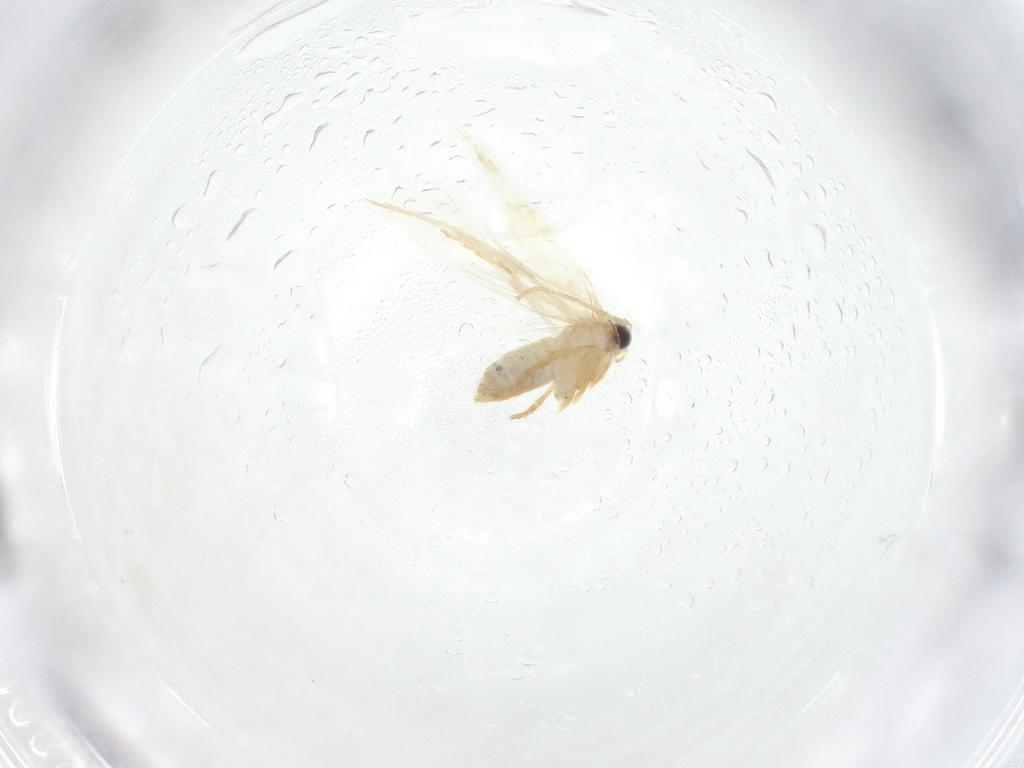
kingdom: Animalia
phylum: Arthropoda
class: Insecta
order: Lepidoptera
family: Nepticulidae
